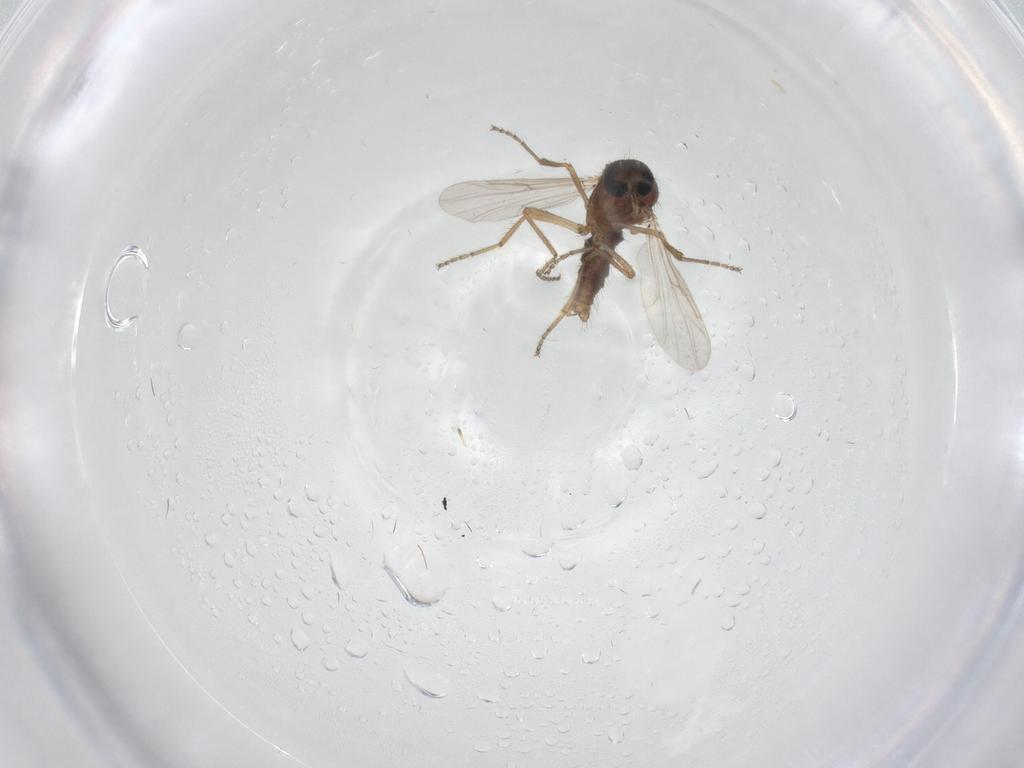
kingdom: Animalia
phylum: Arthropoda
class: Insecta
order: Diptera
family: Ceratopogonidae
